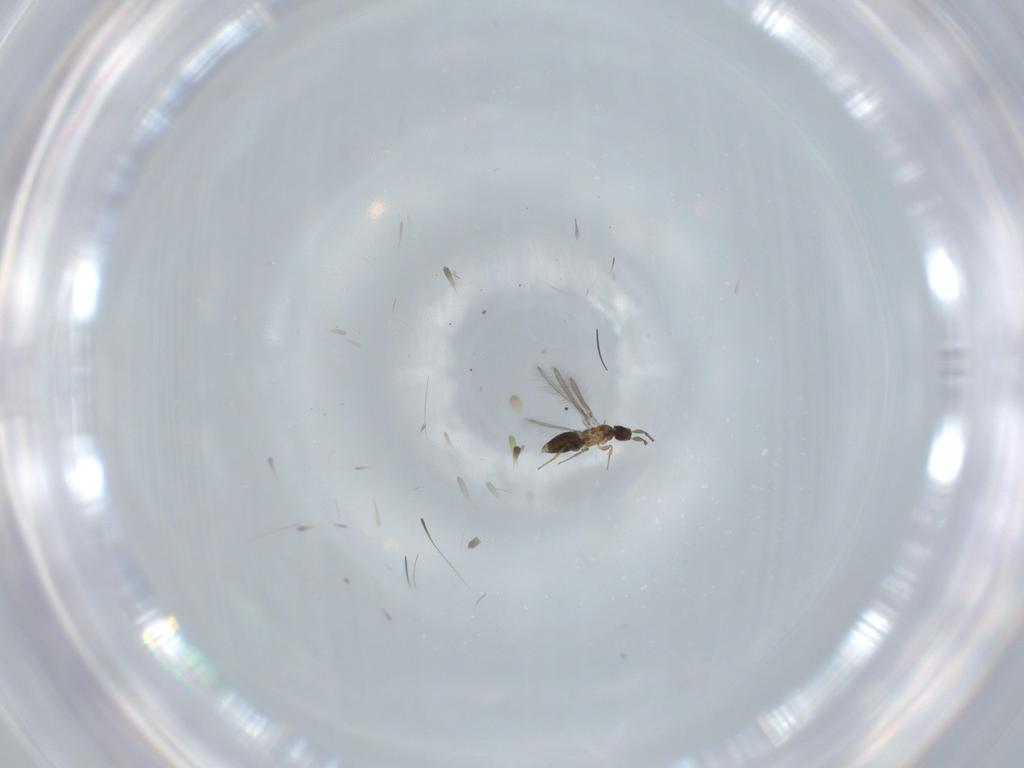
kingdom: Animalia
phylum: Arthropoda
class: Insecta
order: Hymenoptera
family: Mymaridae
